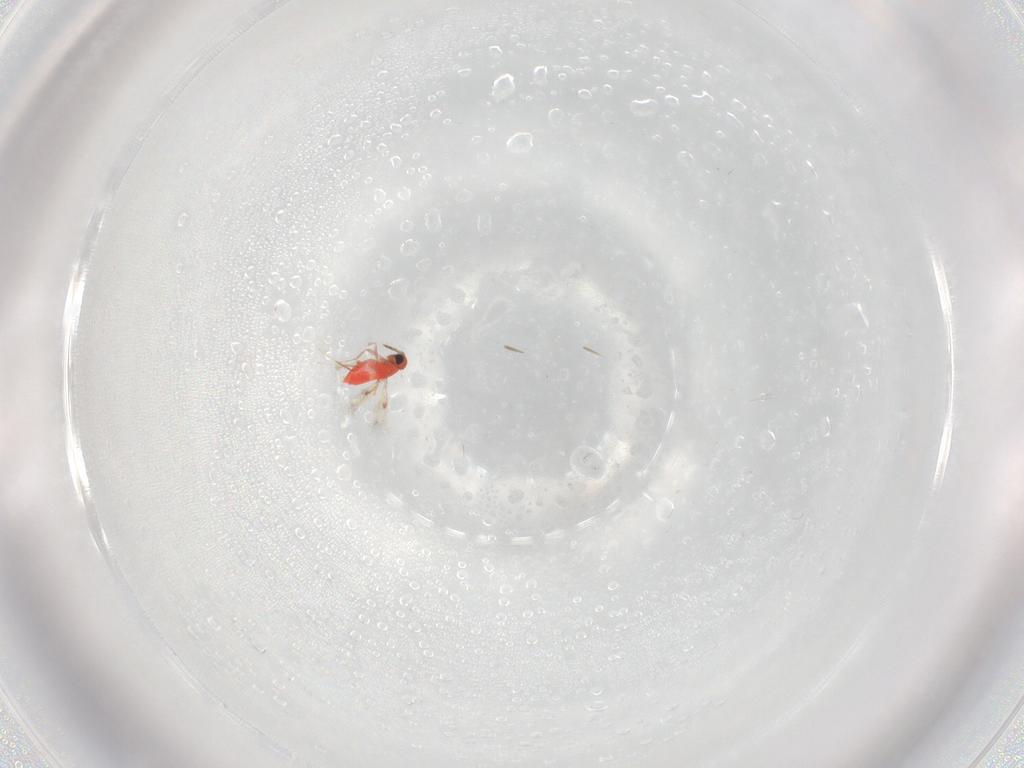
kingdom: Animalia
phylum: Arthropoda
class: Insecta
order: Hymenoptera
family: Trichogrammatidae
